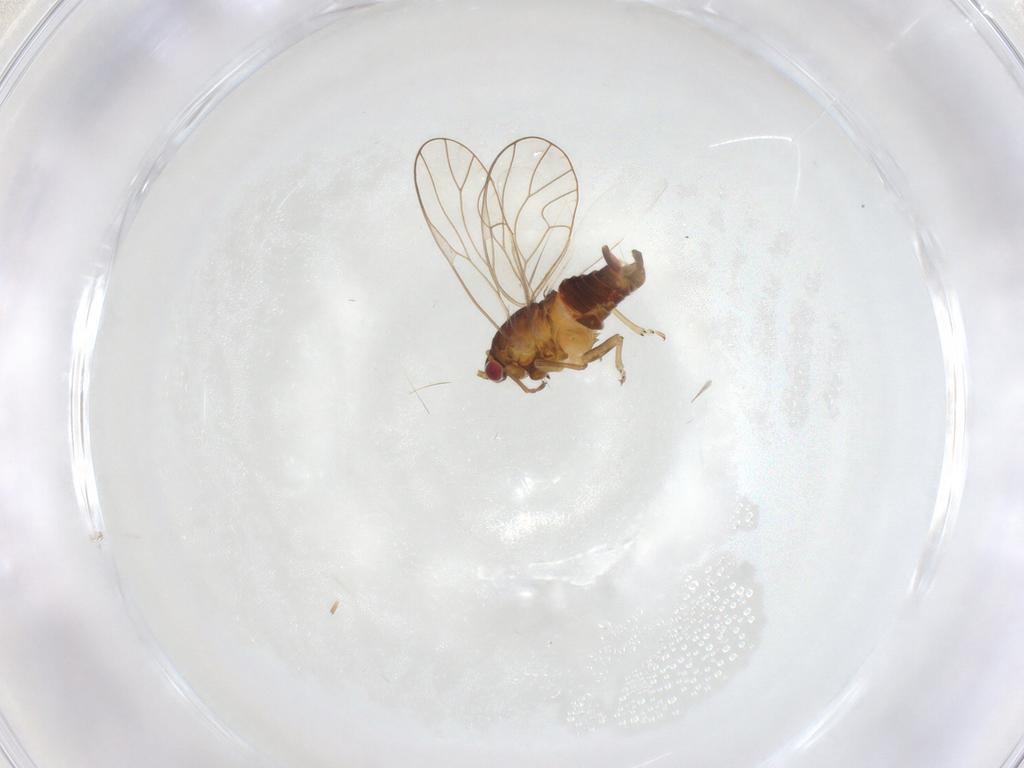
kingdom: Animalia
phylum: Arthropoda
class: Insecta
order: Hemiptera
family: Psyllidae
